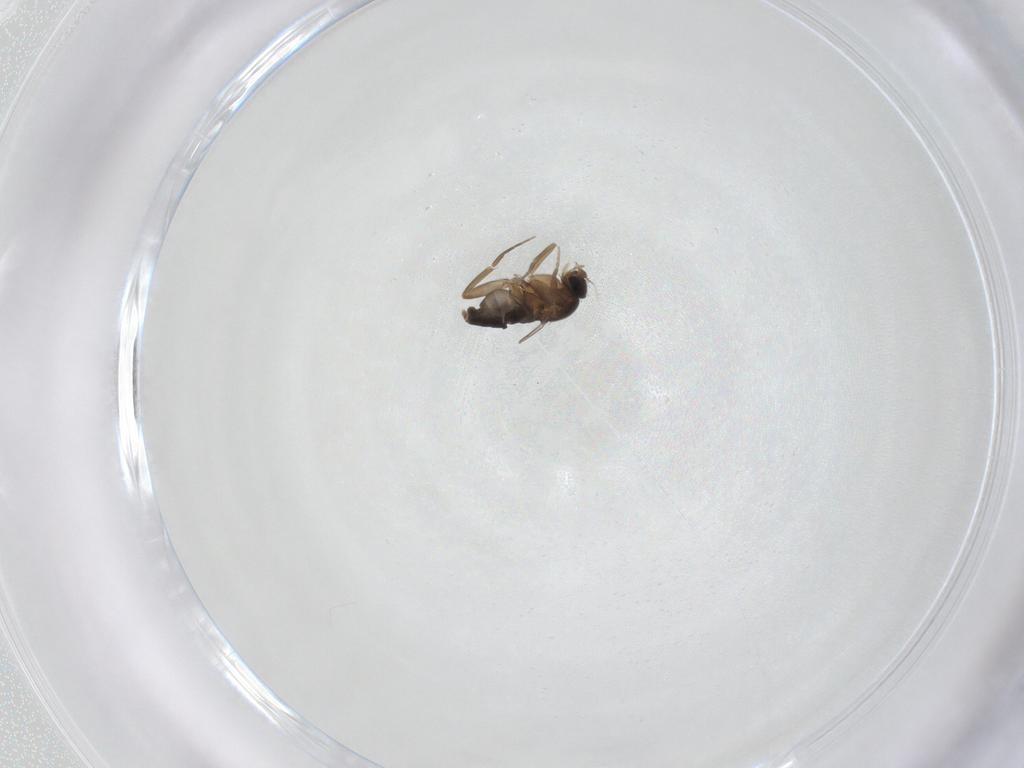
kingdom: Animalia
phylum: Arthropoda
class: Insecta
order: Diptera
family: Phoridae
